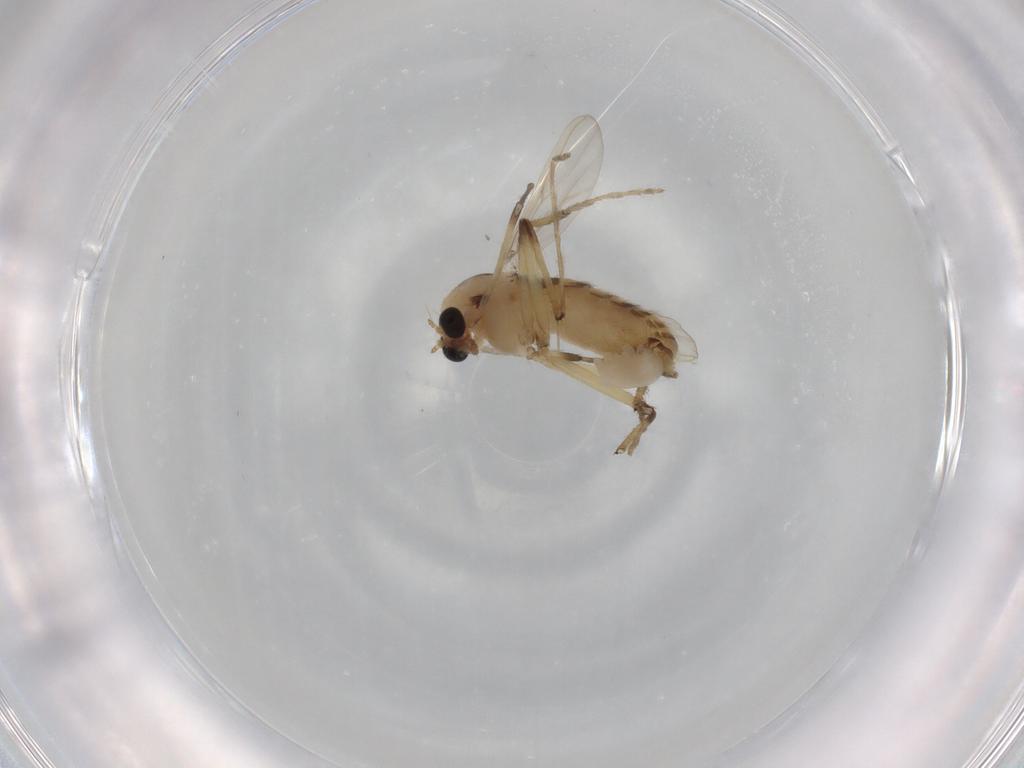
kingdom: Animalia
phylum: Arthropoda
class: Insecta
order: Diptera
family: Chironomidae
